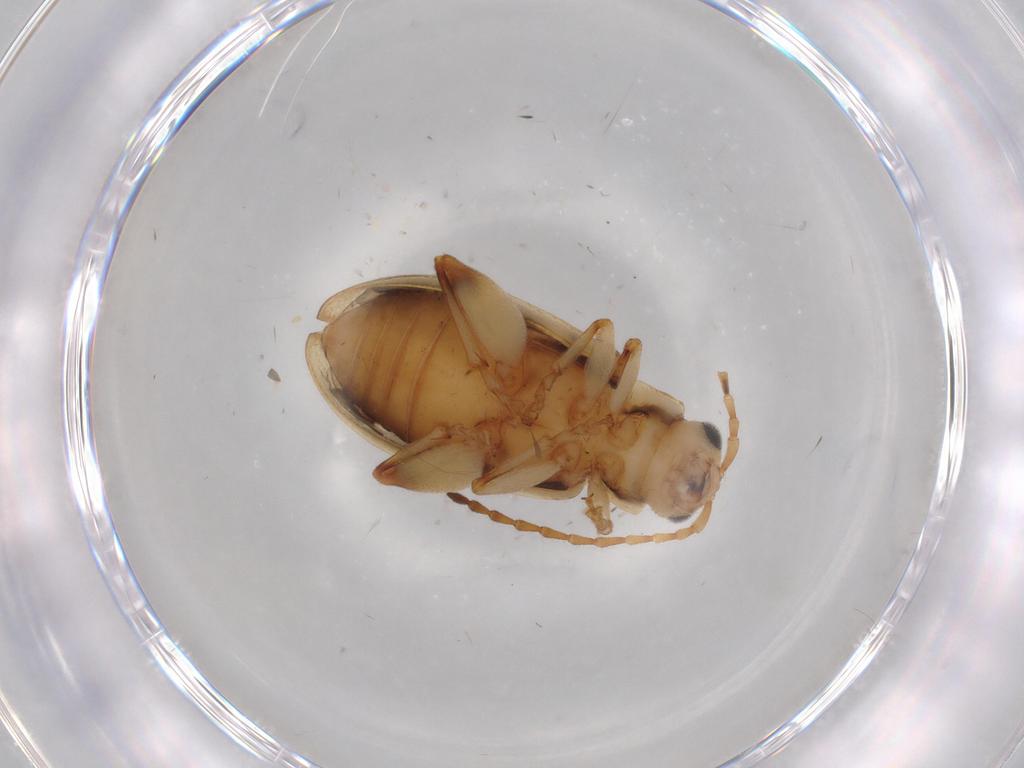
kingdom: Animalia
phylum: Arthropoda
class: Insecta
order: Coleoptera
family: Chrysomelidae
